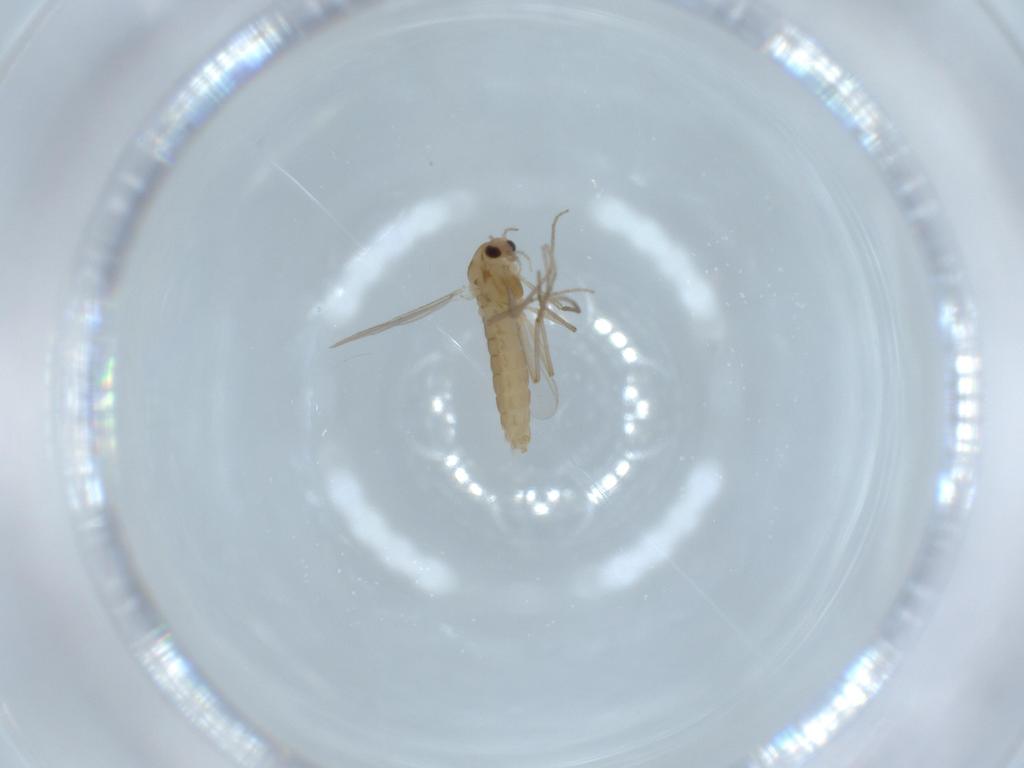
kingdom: Animalia
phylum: Arthropoda
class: Insecta
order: Diptera
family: Chironomidae
